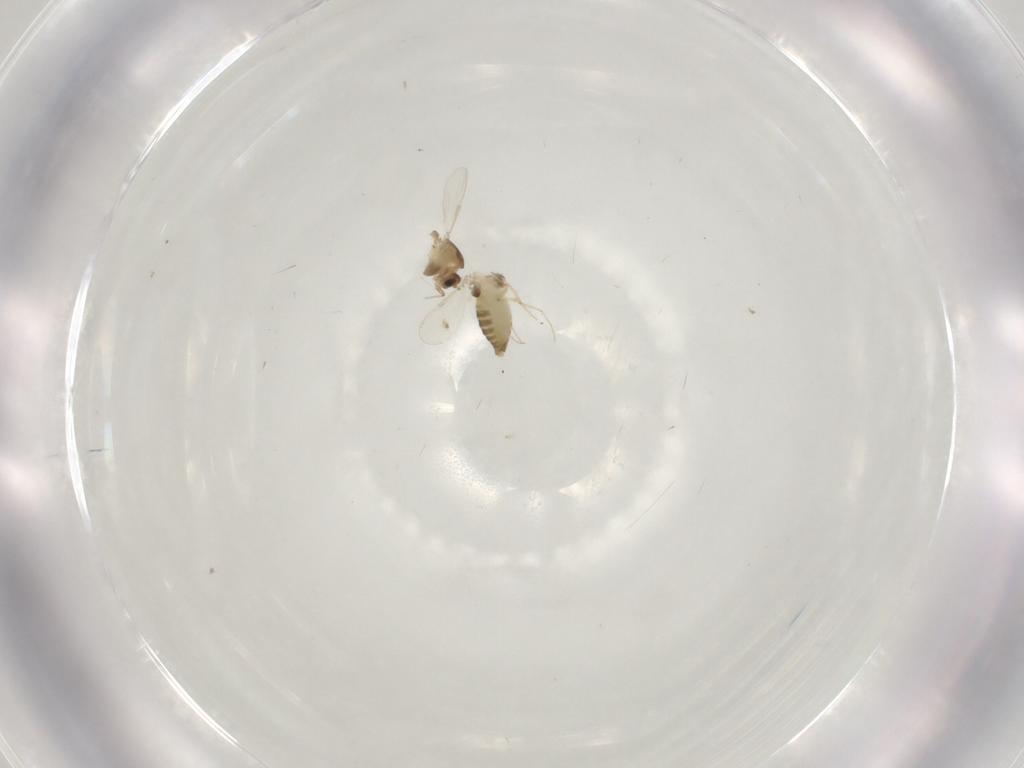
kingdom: Animalia
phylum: Arthropoda
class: Insecta
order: Diptera
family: Chironomidae
